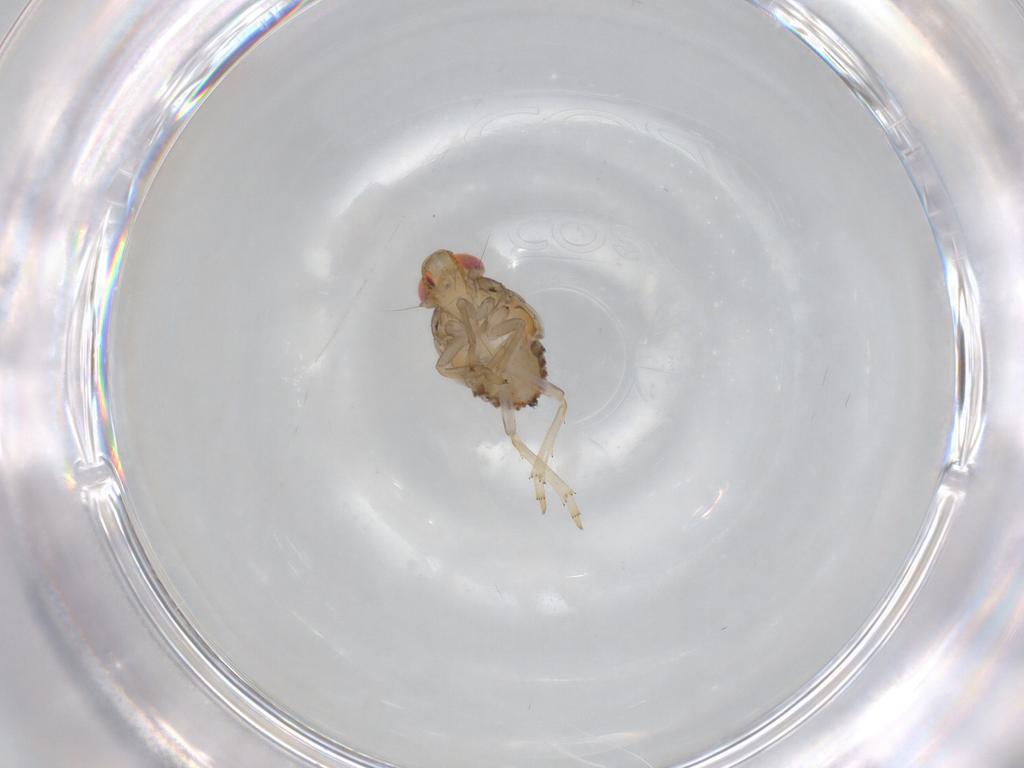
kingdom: Animalia
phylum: Arthropoda
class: Insecta
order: Hemiptera
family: Issidae
